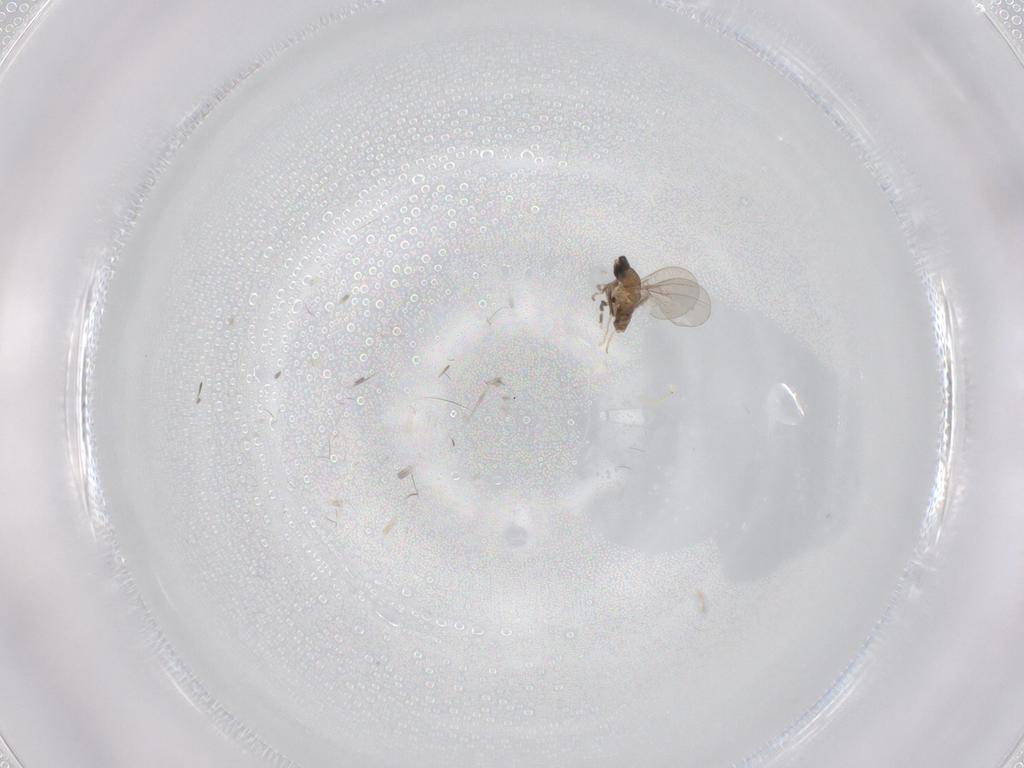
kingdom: Animalia
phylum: Arthropoda
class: Insecta
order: Diptera
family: Cecidomyiidae
